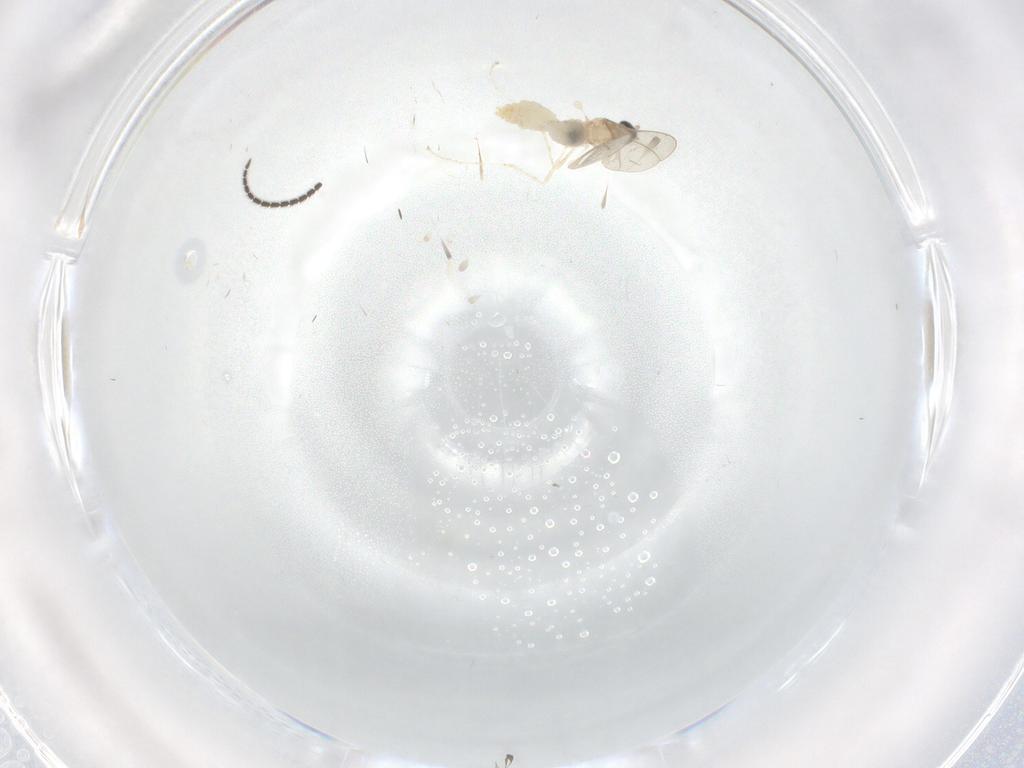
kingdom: Animalia
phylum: Arthropoda
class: Insecta
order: Diptera
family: Cecidomyiidae
